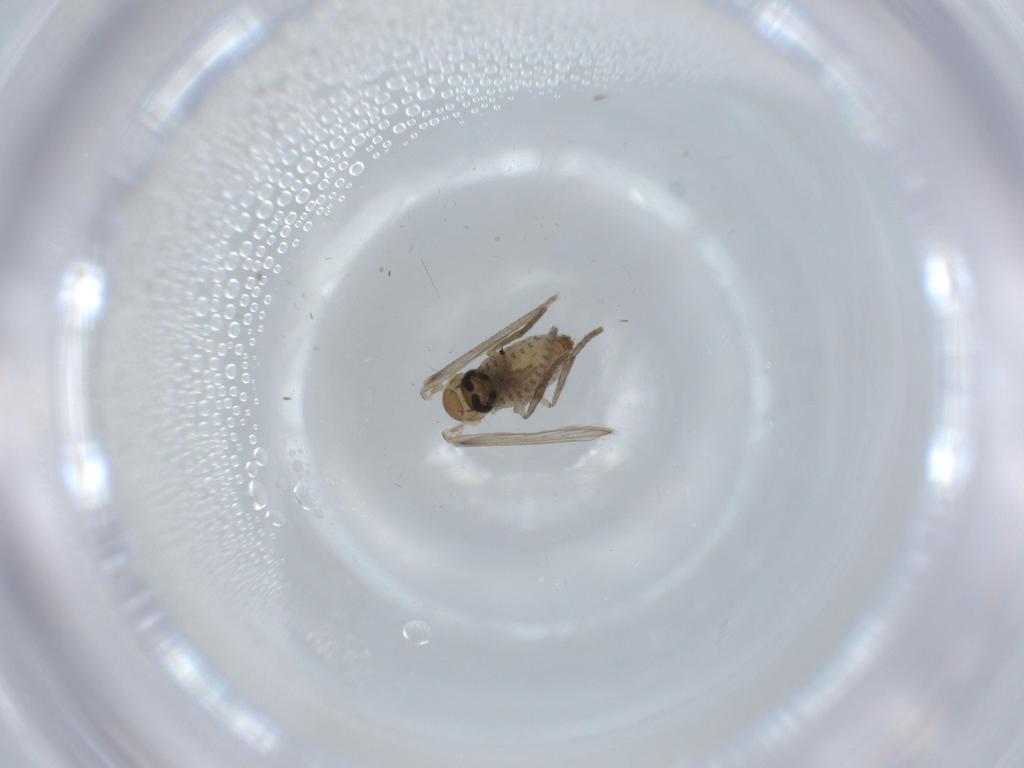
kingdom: Animalia
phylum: Arthropoda
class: Insecta
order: Diptera
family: Psychodidae
